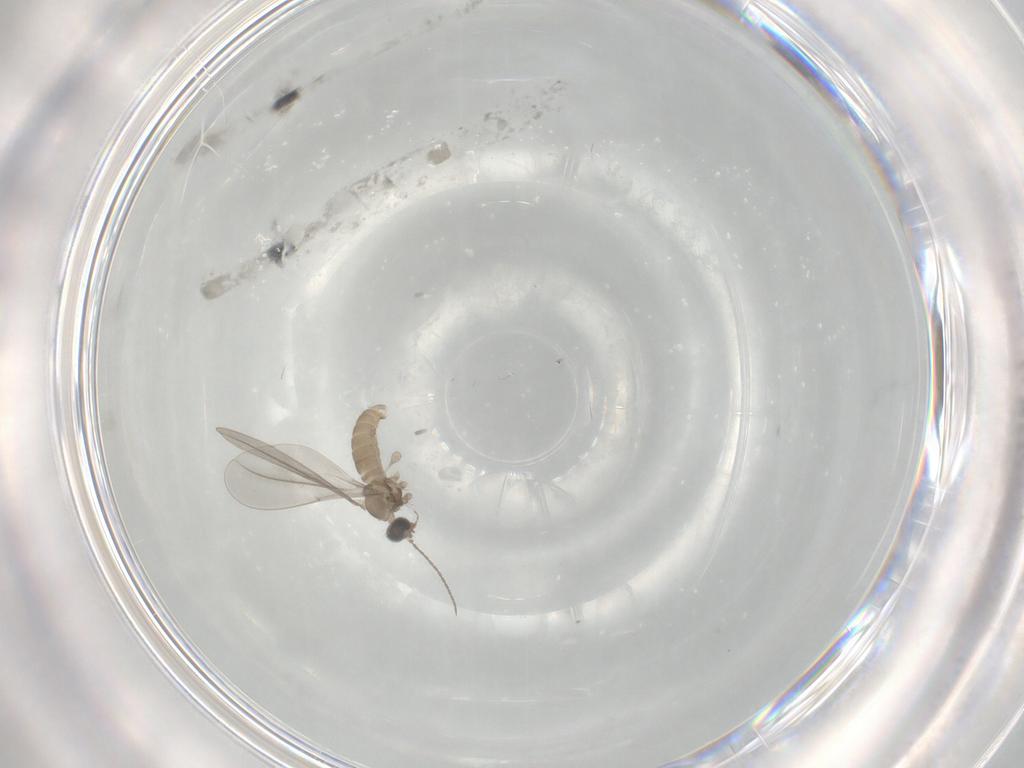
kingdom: Animalia
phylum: Arthropoda
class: Insecta
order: Diptera
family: Cecidomyiidae
